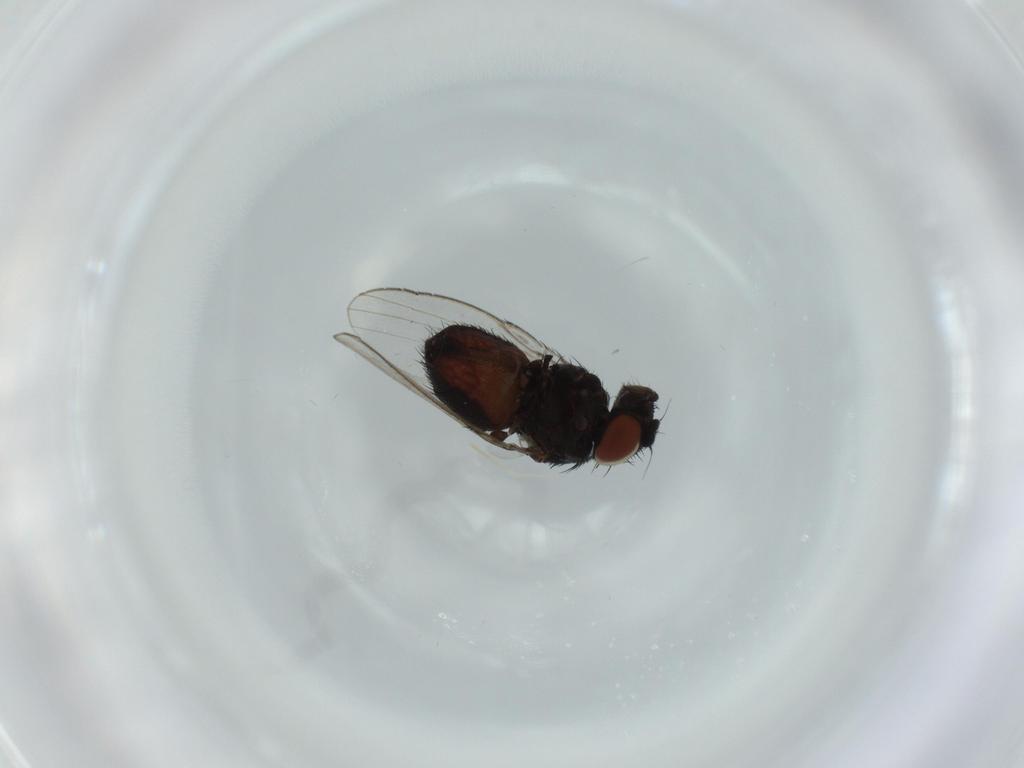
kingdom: Animalia
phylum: Arthropoda
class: Insecta
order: Diptera
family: Milichiidae
